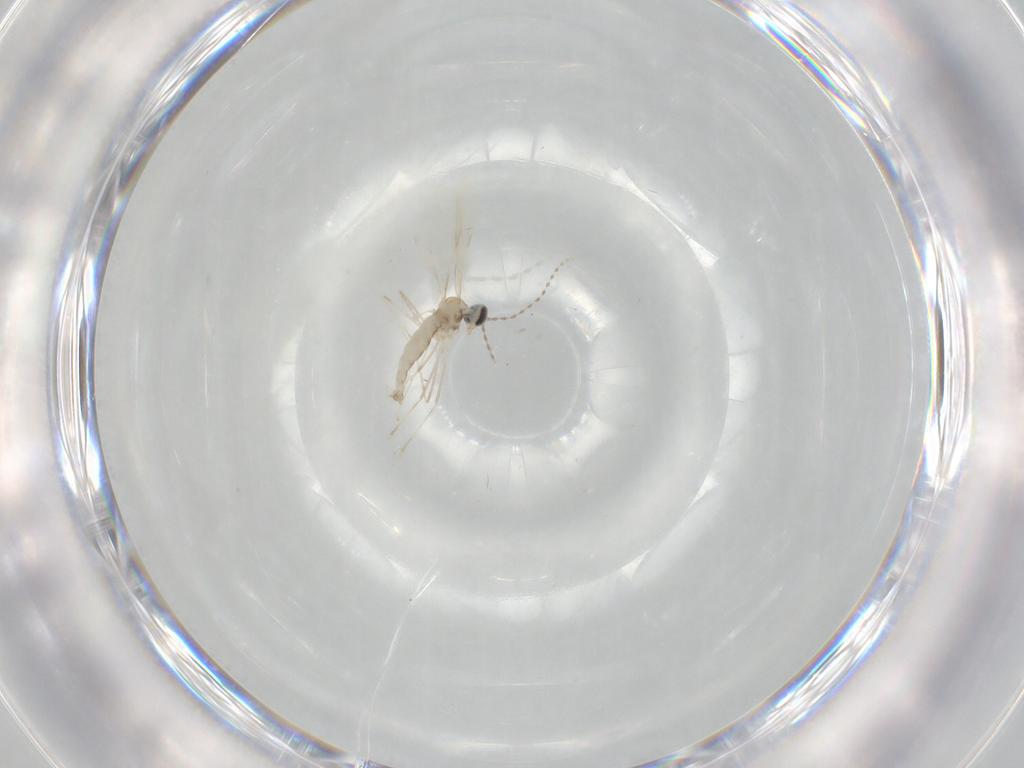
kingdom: Animalia
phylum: Arthropoda
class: Insecta
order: Diptera
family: Cecidomyiidae
